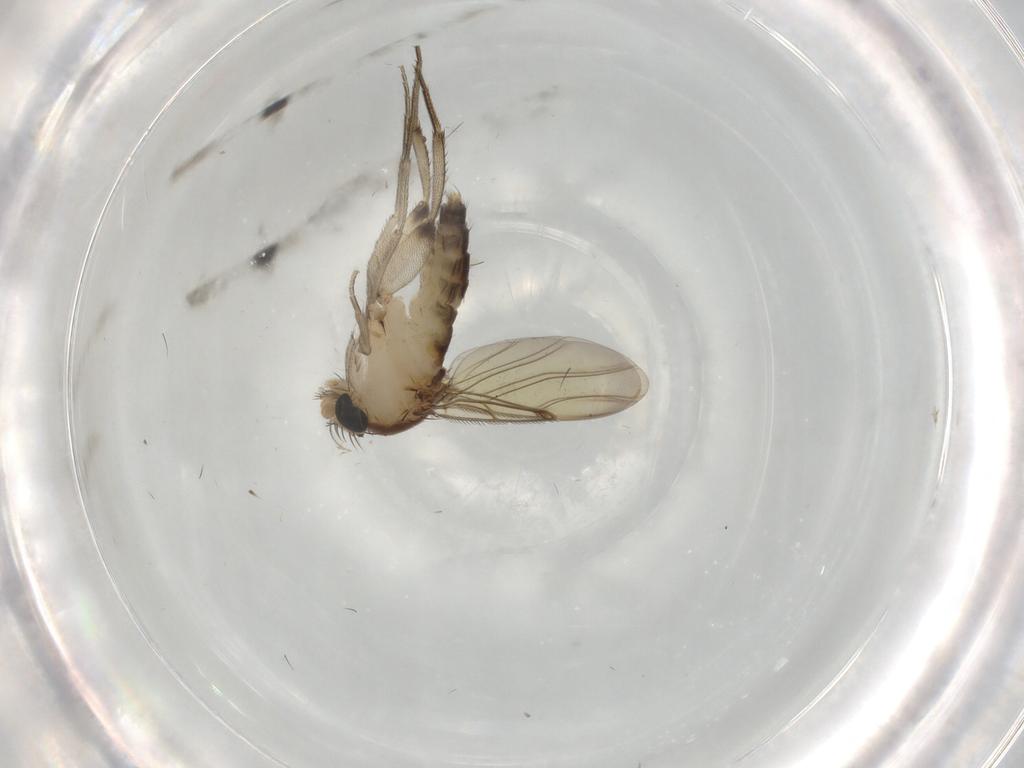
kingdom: Animalia
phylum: Arthropoda
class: Insecta
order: Diptera
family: Phoridae
